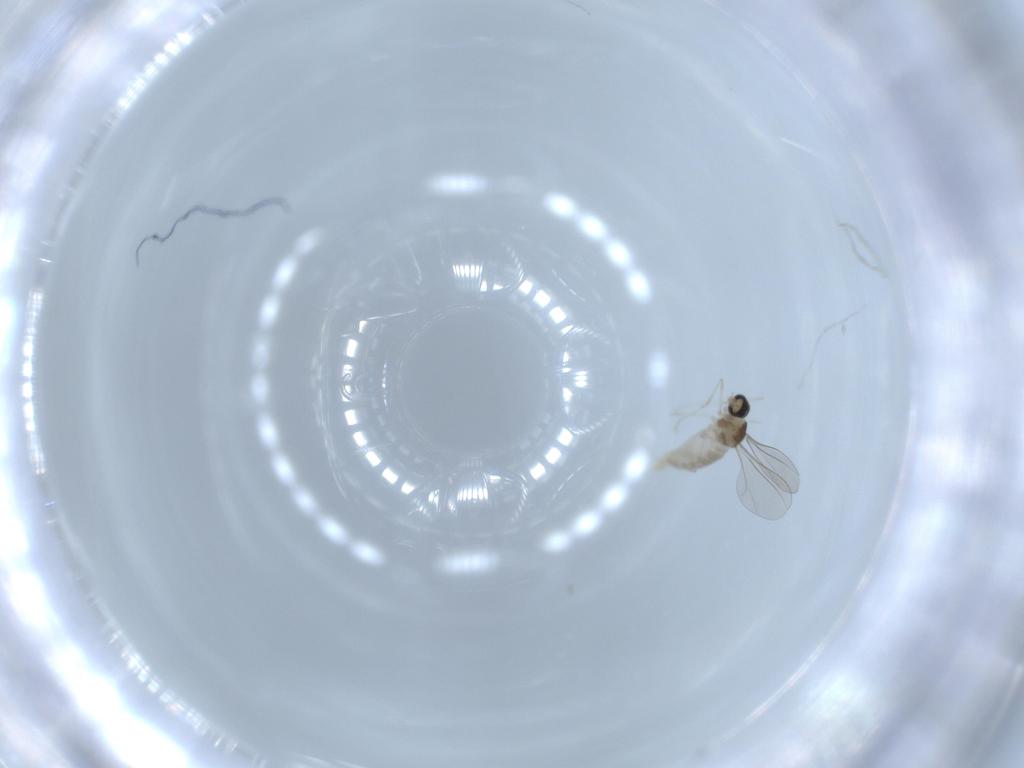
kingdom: Animalia
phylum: Arthropoda
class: Insecta
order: Diptera
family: Cecidomyiidae
